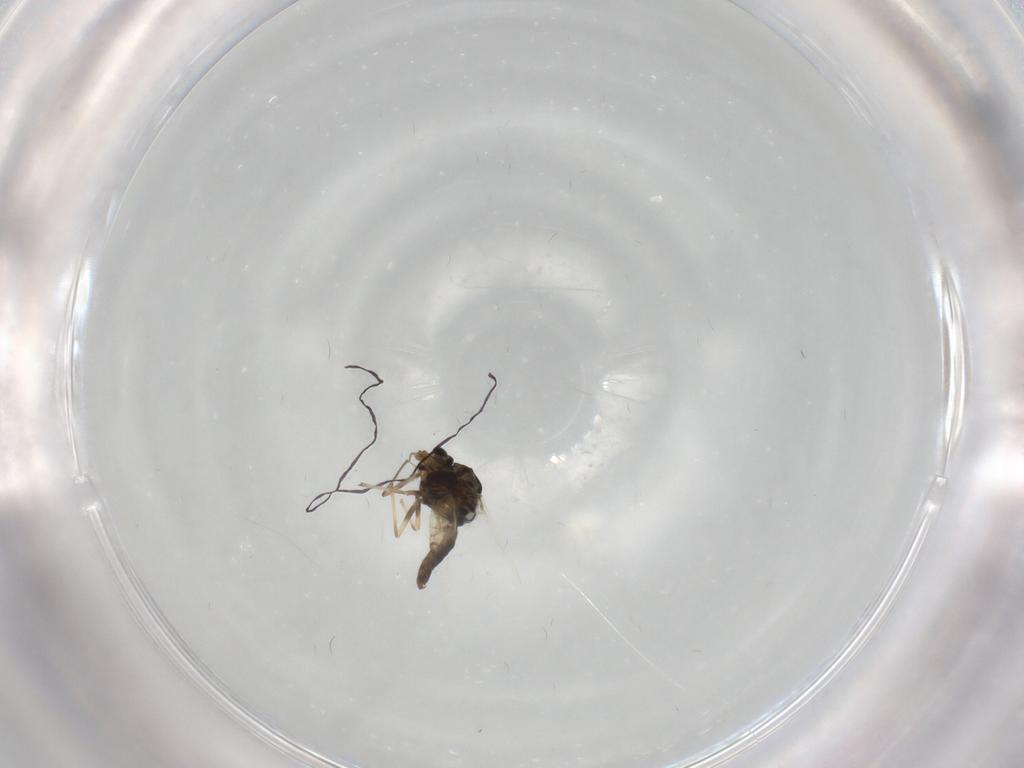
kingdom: Animalia
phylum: Arthropoda
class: Insecta
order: Diptera
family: Chironomidae
